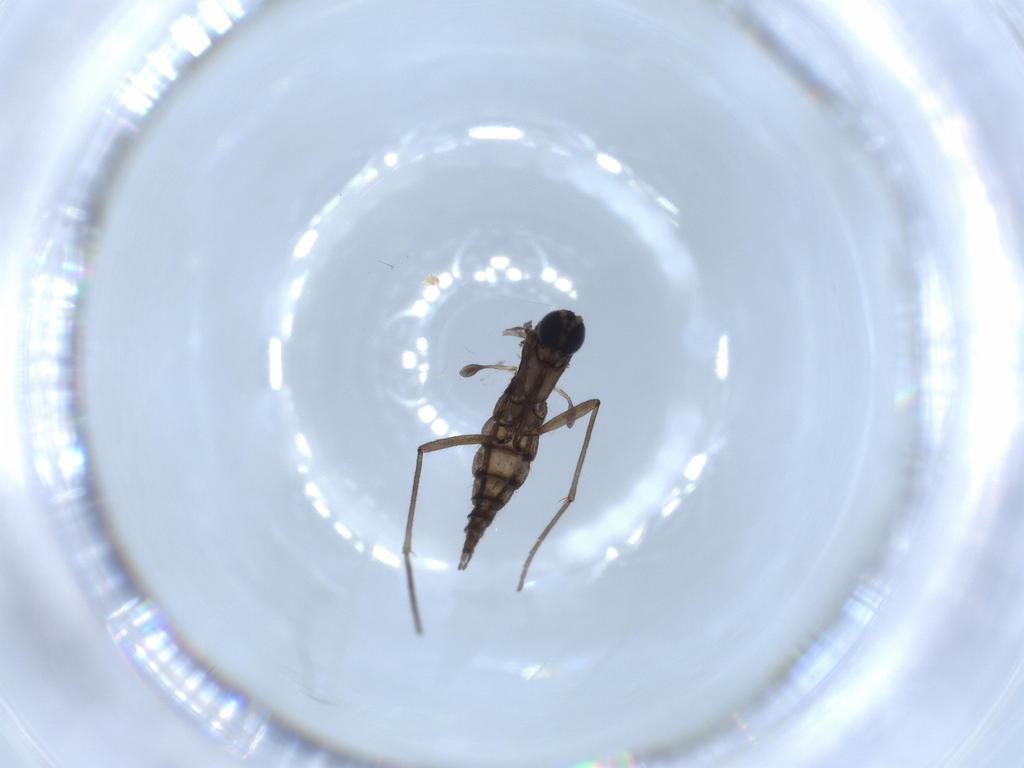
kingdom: Animalia
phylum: Arthropoda
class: Insecta
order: Diptera
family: Sciaridae
